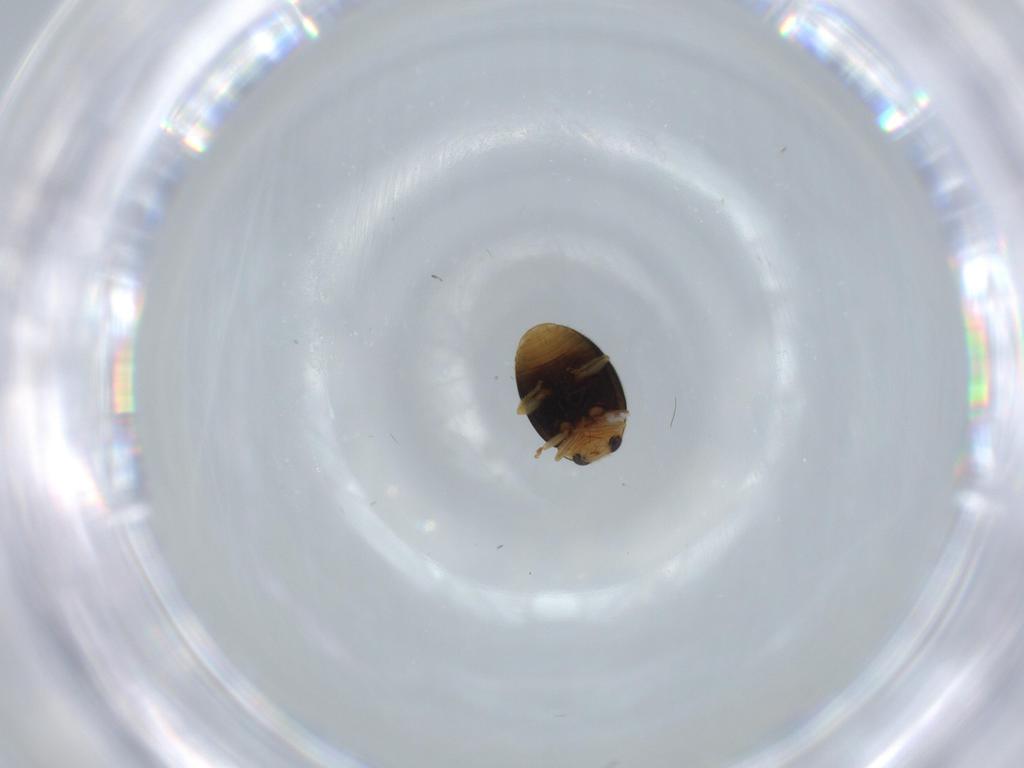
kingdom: Animalia
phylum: Arthropoda
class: Insecta
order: Coleoptera
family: Coccinellidae
